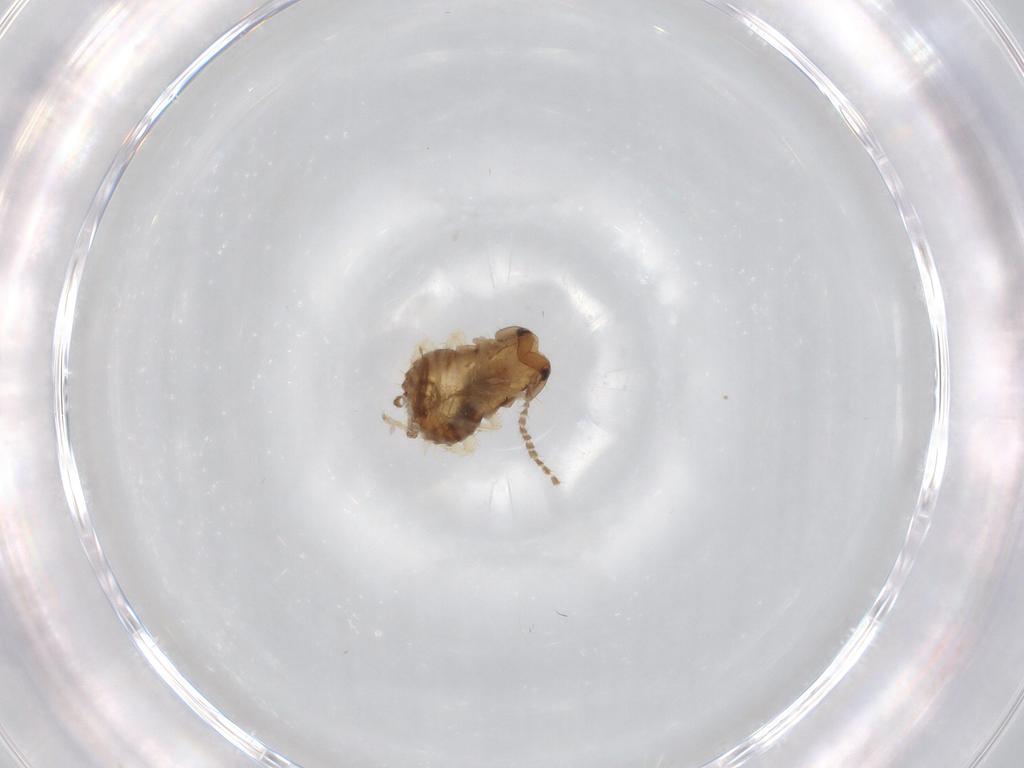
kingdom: Animalia
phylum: Arthropoda
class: Insecta
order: Blattodea
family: Ectobiidae
